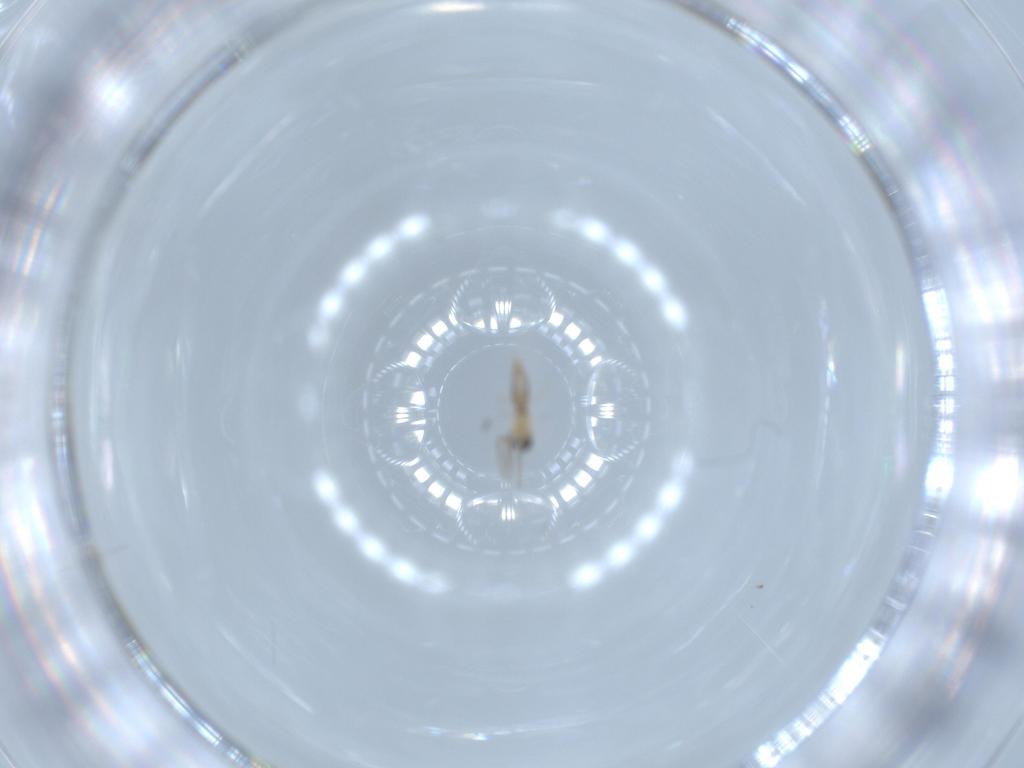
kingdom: Animalia
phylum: Arthropoda
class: Insecta
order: Diptera
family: Cecidomyiidae
